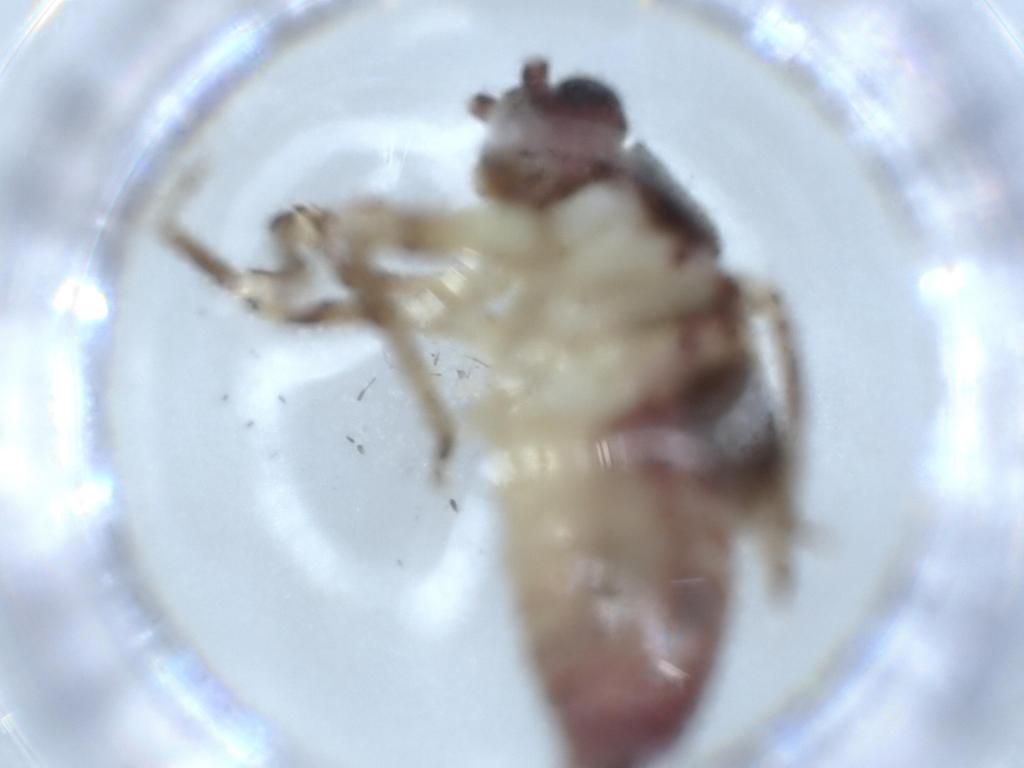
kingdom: Animalia
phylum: Arthropoda
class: Insecta
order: Orthoptera
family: Trigonidiidae
